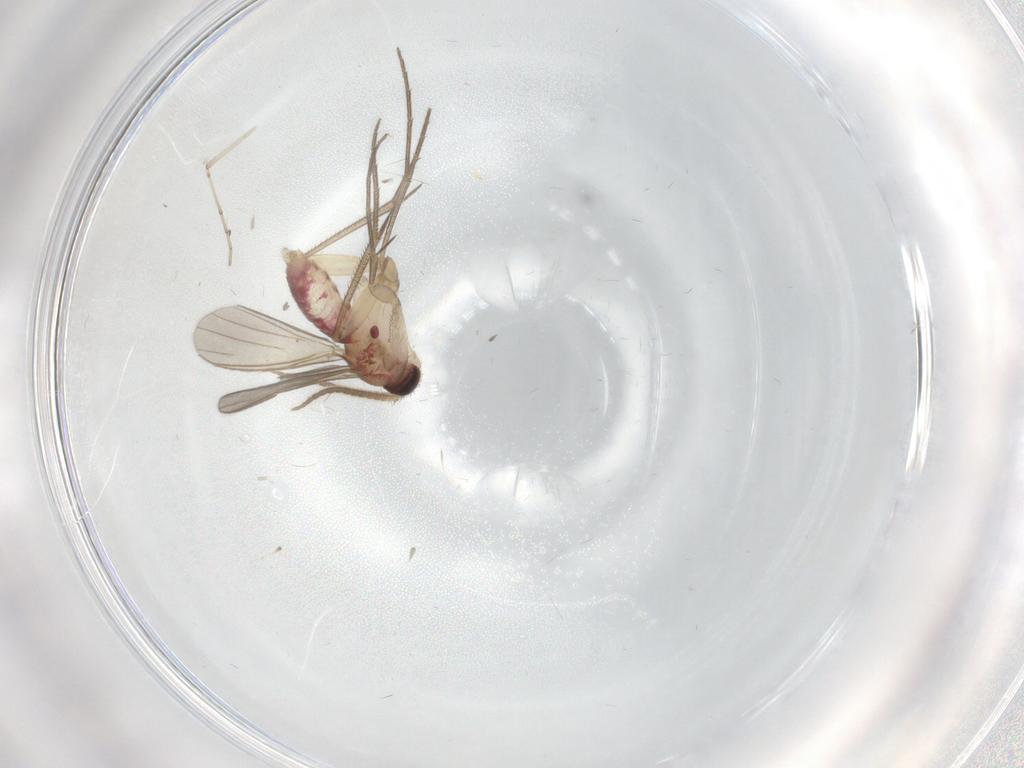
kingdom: Animalia
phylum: Arthropoda
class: Insecta
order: Diptera
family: Mycetophilidae
